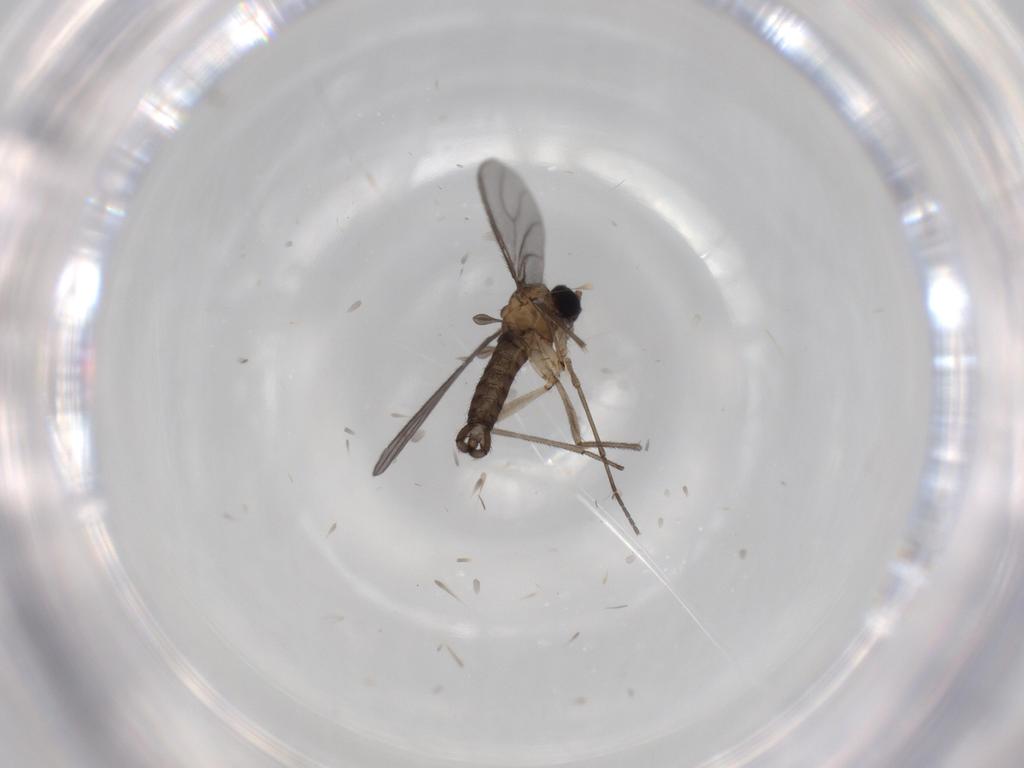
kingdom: Animalia
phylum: Arthropoda
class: Insecta
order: Diptera
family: Sciaridae
